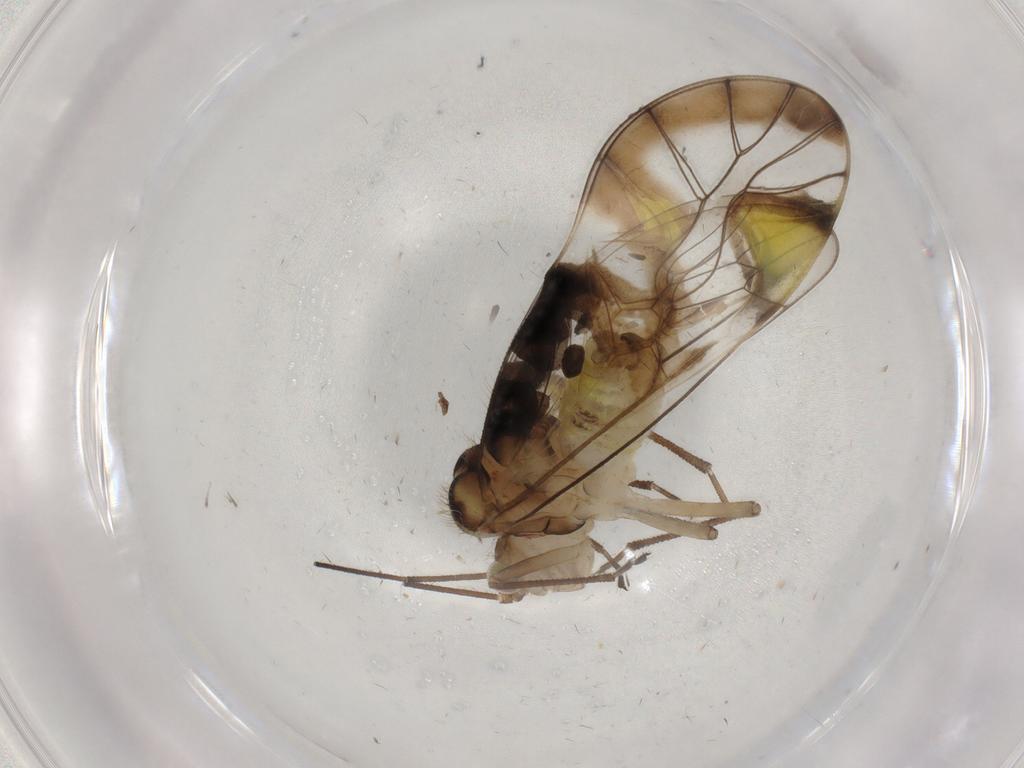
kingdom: Animalia
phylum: Arthropoda
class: Insecta
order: Psocodea
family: Amphipsocidae
